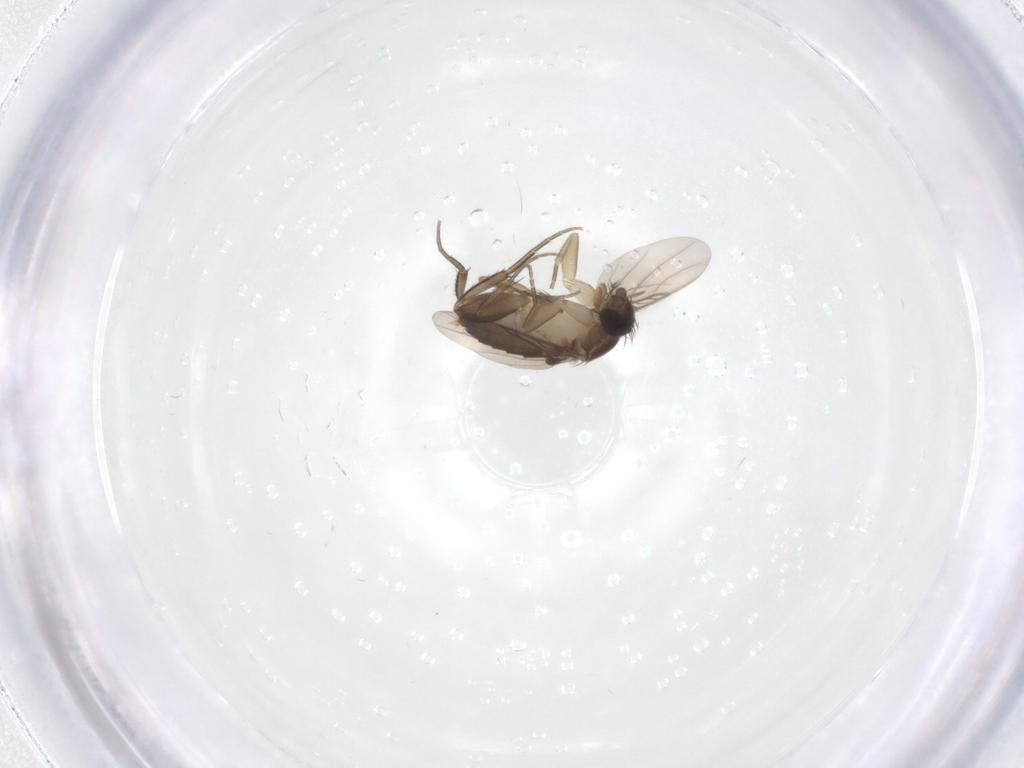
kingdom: Animalia
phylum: Arthropoda
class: Insecta
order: Diptera
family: Phoridae
